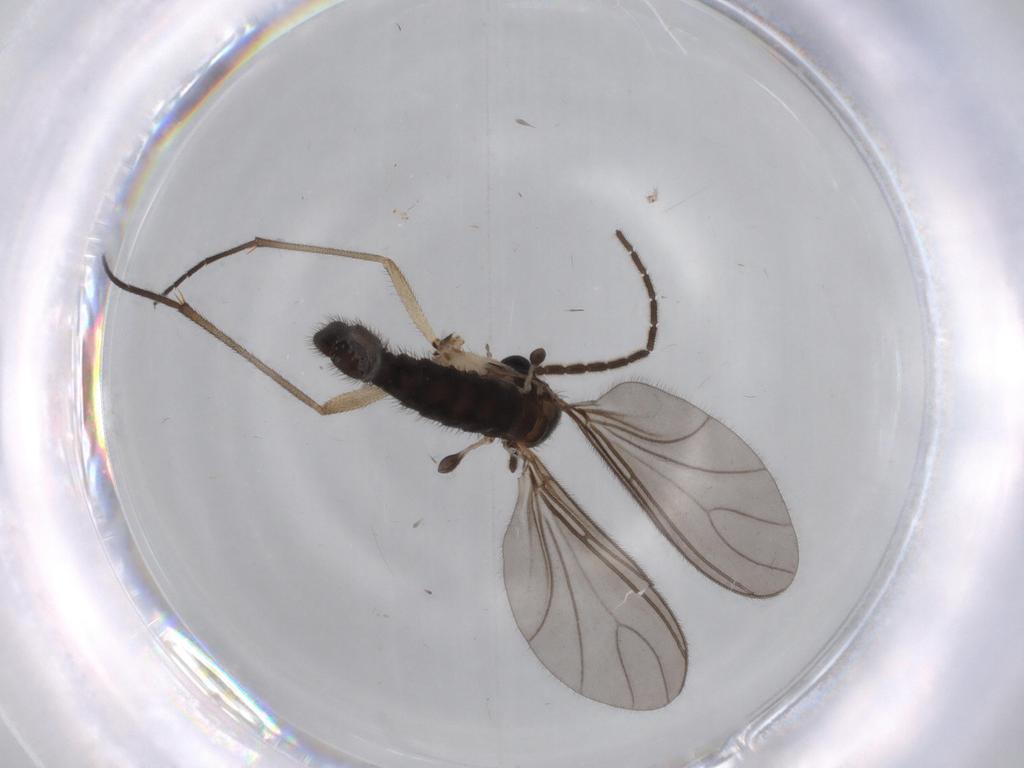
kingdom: Animalia
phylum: Arthropoda
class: Insecta
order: Diptera
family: Sciaridae
